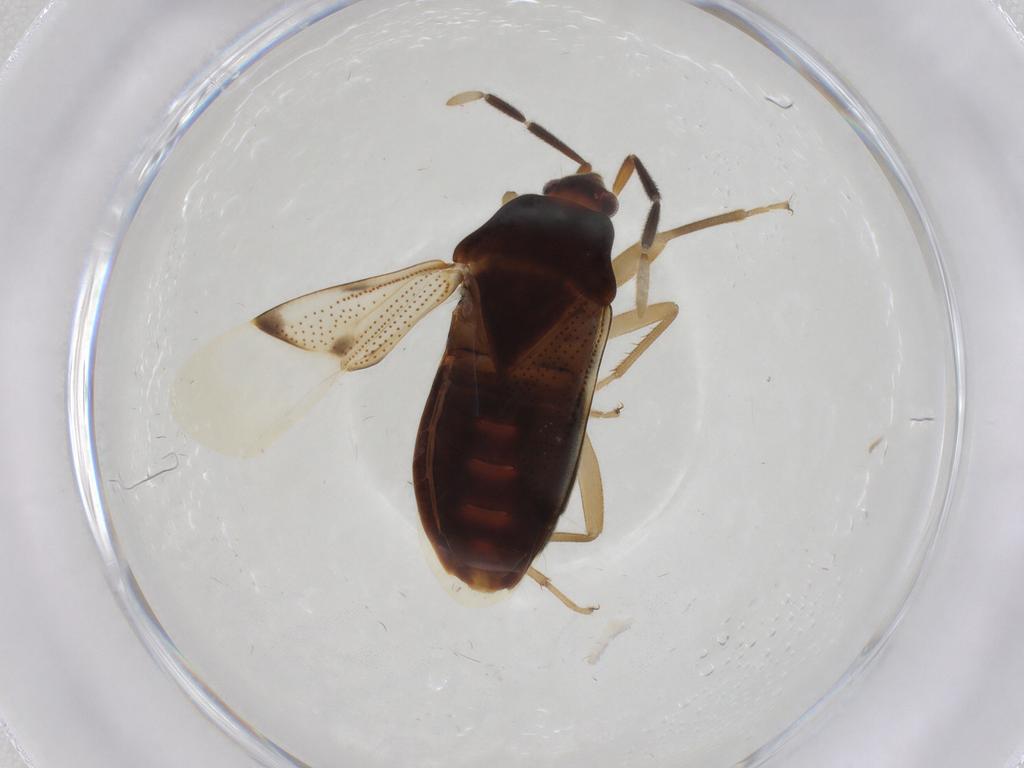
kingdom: Animalia
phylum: Arthropoda
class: Insecta
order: Hemiptera
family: Rhyparochromidae
